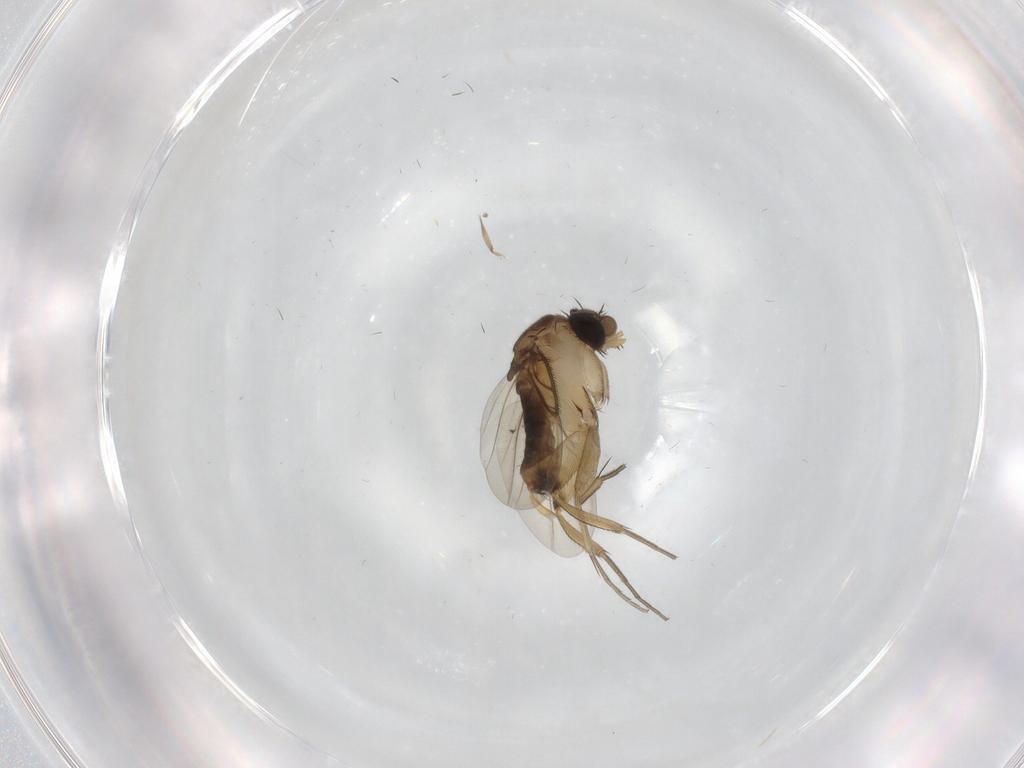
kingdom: Animalia
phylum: Arthropoda
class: Insecta
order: Diptera
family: Phoridae
